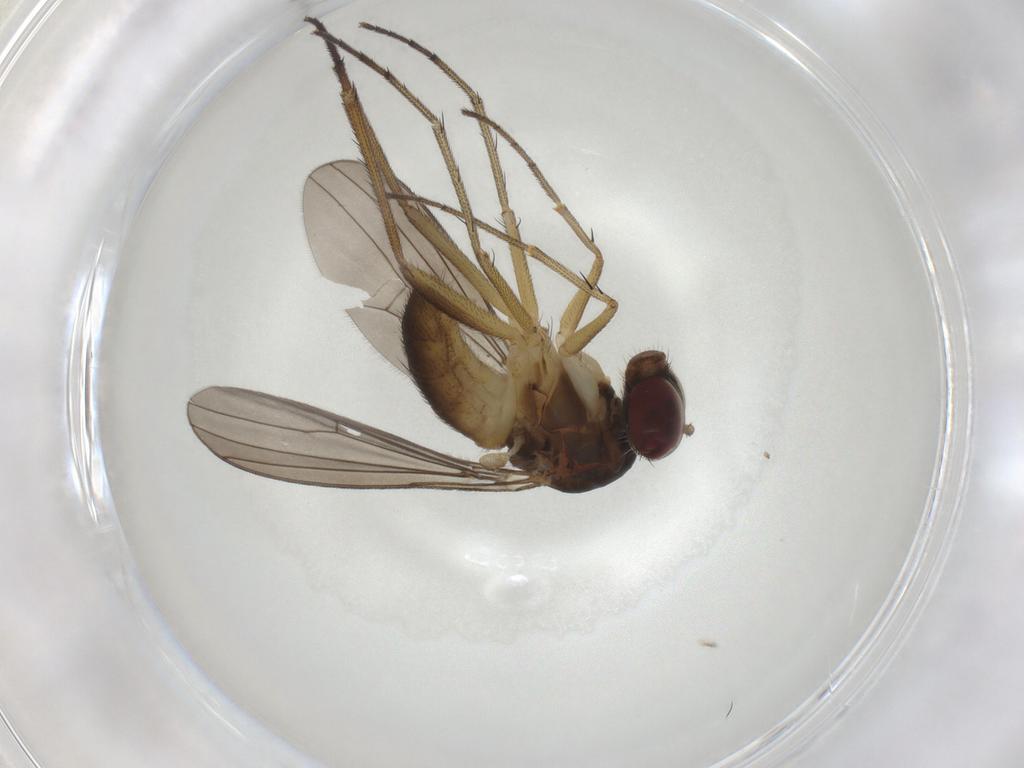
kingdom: Animalia
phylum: Arthropoda
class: Insecta
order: Diptera
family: Dolichopodidae
